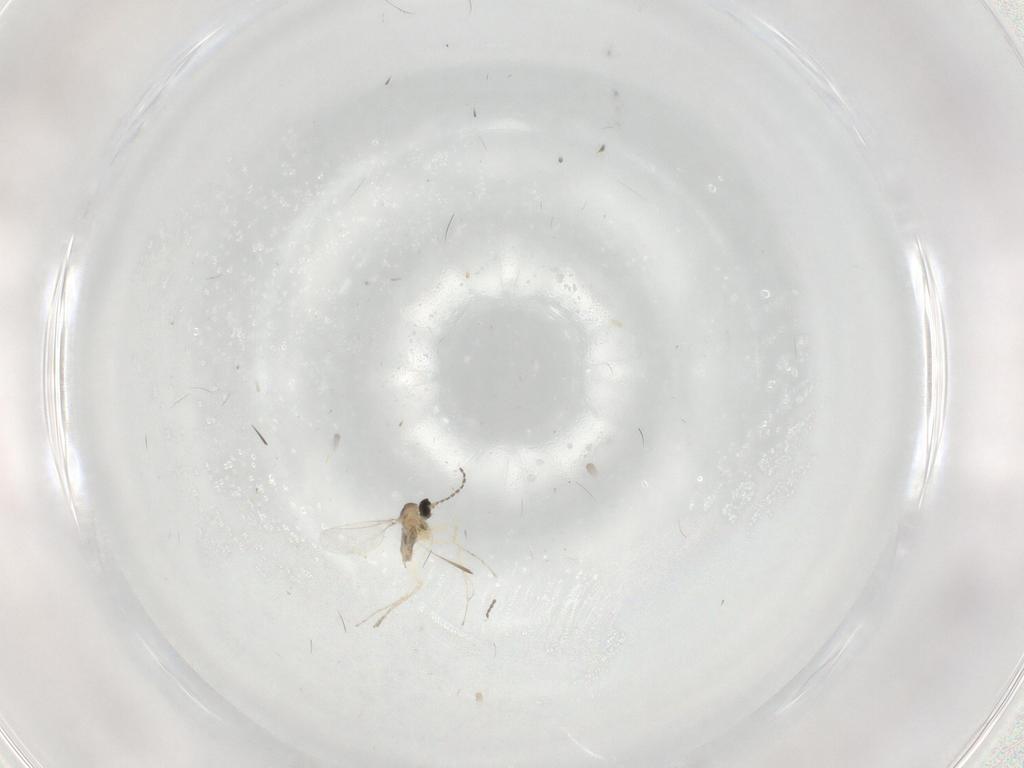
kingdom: Animalia
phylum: Arthropoda
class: Insecta
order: Diptera
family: Cecidomyiidae
